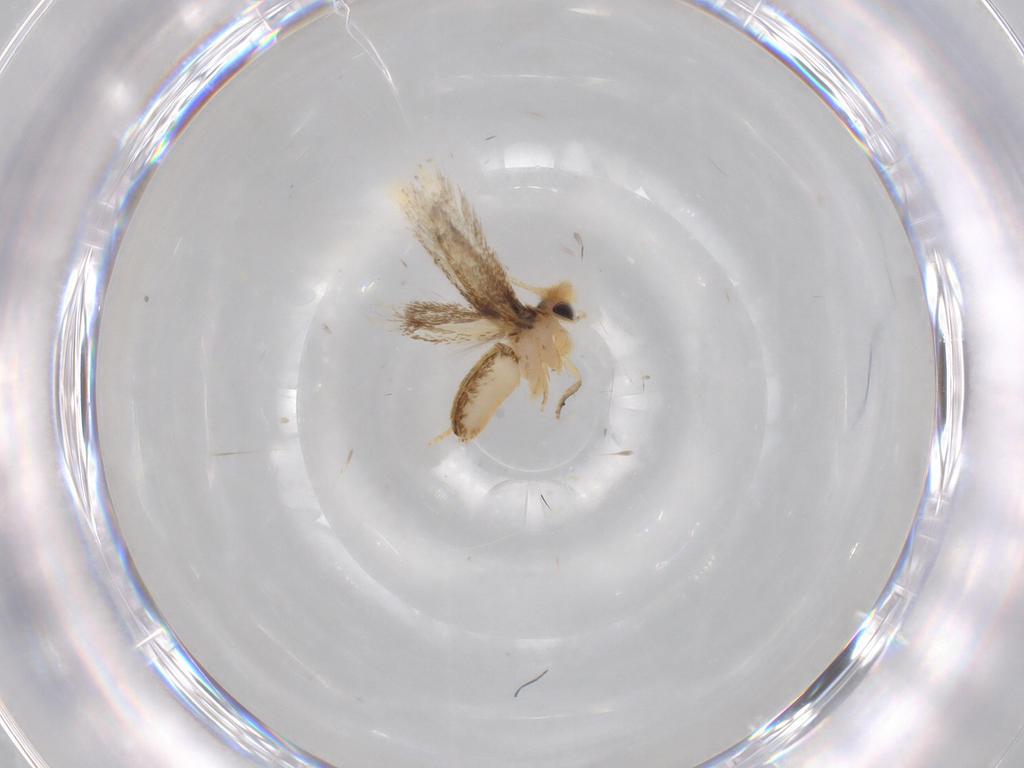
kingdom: Animalia
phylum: Arthropoda
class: Insecta
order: Lepidoptera
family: Nepticulidae
